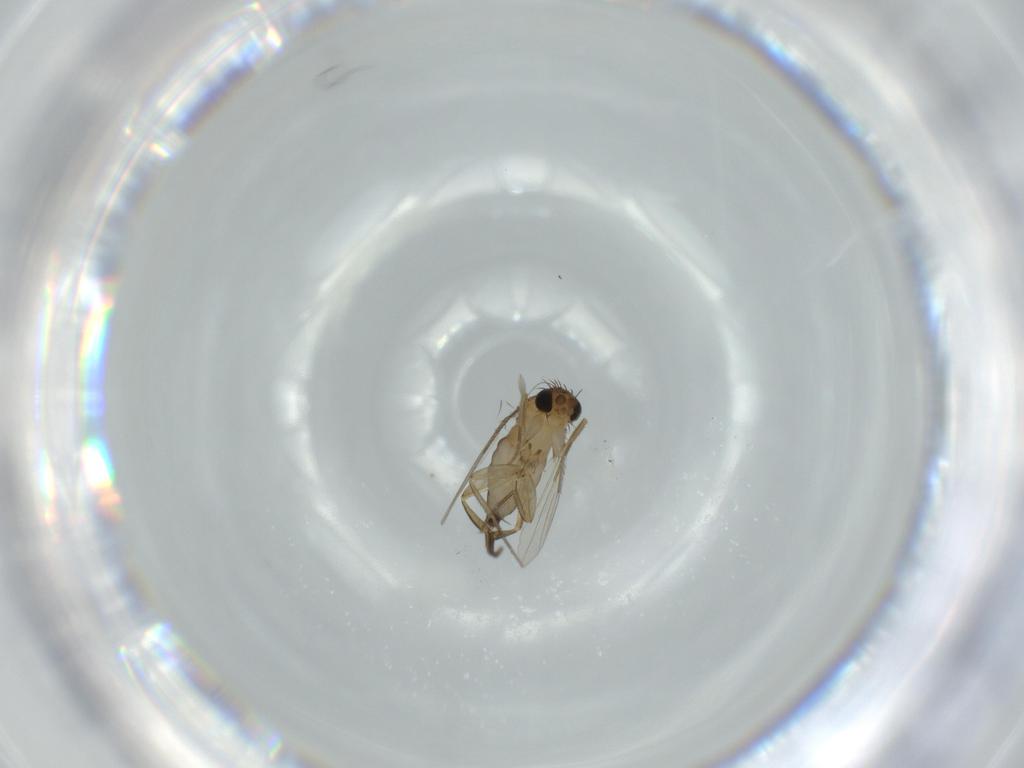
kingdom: Animalia
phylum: Arthropoda
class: Insecta
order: Diptera
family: Phoridae
